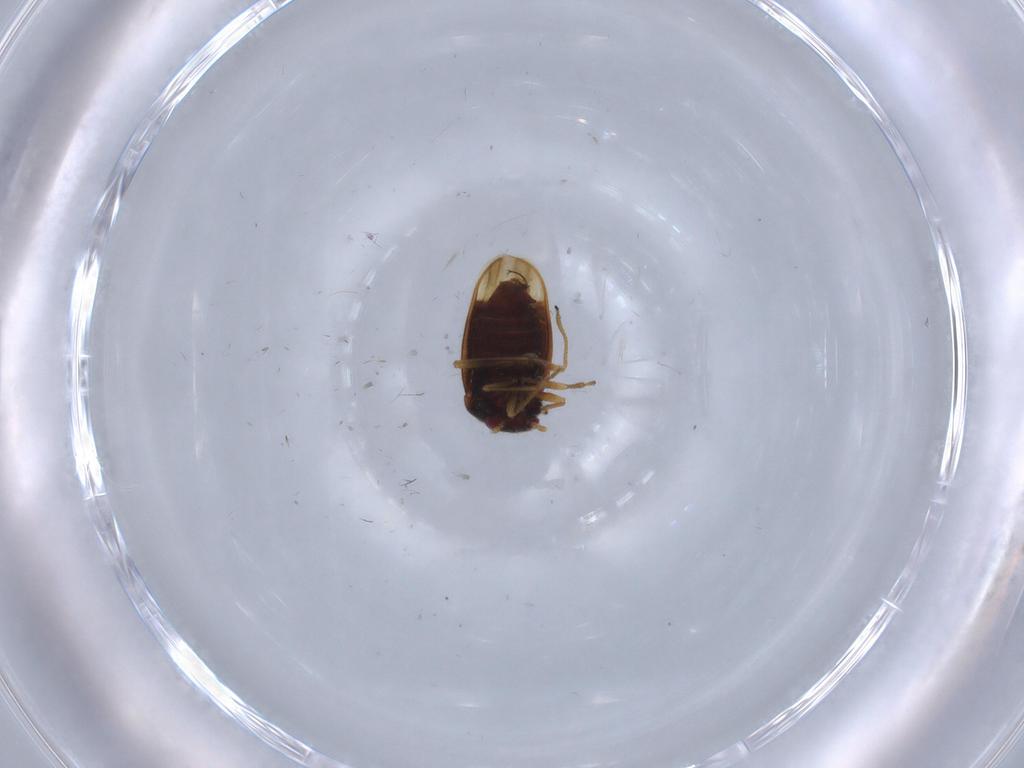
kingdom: Animalia
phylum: Arthropoda
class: Insecta
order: Hemiptera
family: Schizopteridae
